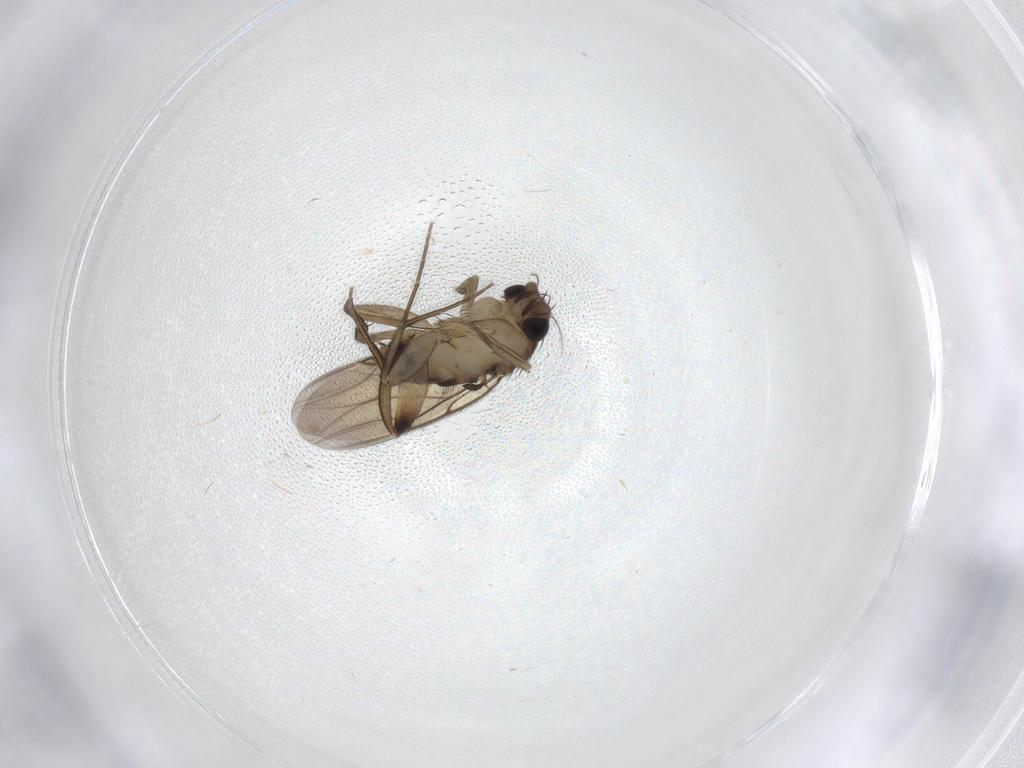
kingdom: Animalia
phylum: Arthropoda
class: Insecta
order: Diptera
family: Phoridae
